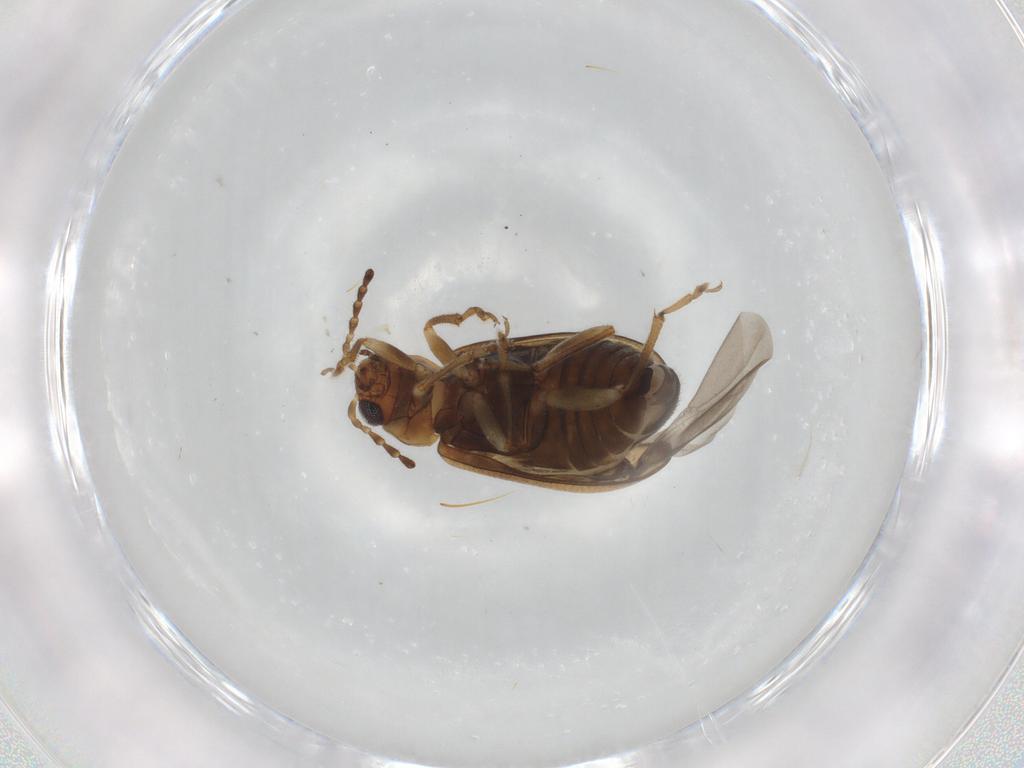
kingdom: Animalia
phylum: Arthropoda
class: Insecta
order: Coleoptera
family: Chrysomelidae
